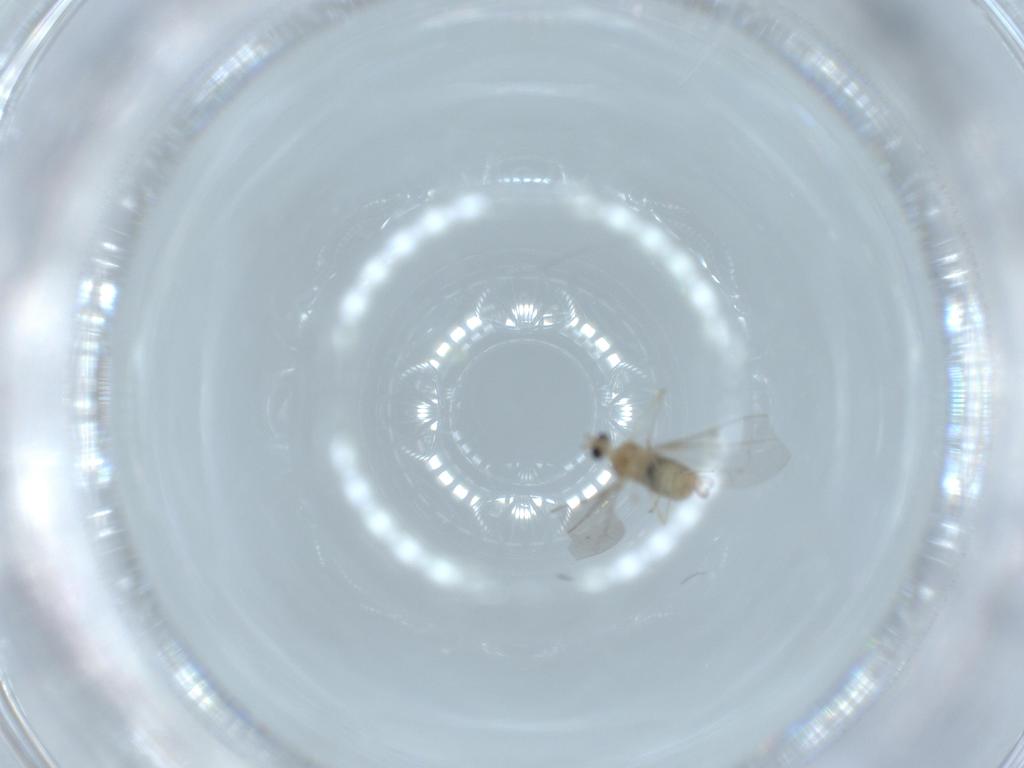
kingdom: Animalia
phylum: Arthropoda
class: Insecta
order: Diptera
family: Cecidomyiidae
